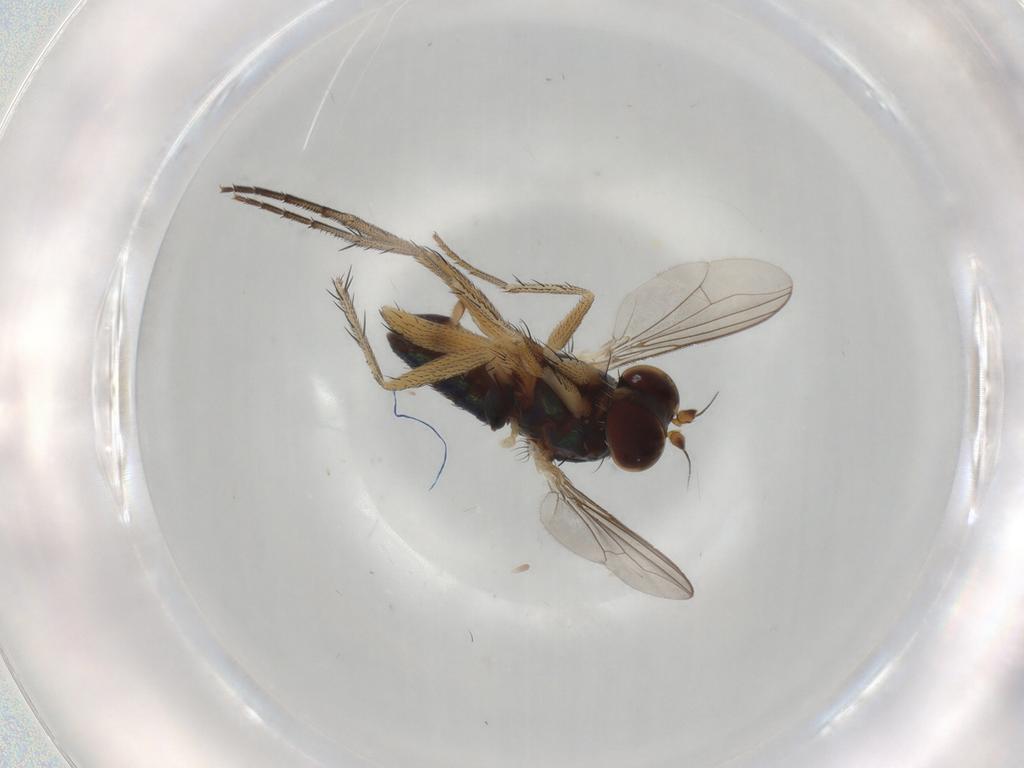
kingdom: Animalia
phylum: Arthropoda
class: Insecta
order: Diptera
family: Dolichopodidae
